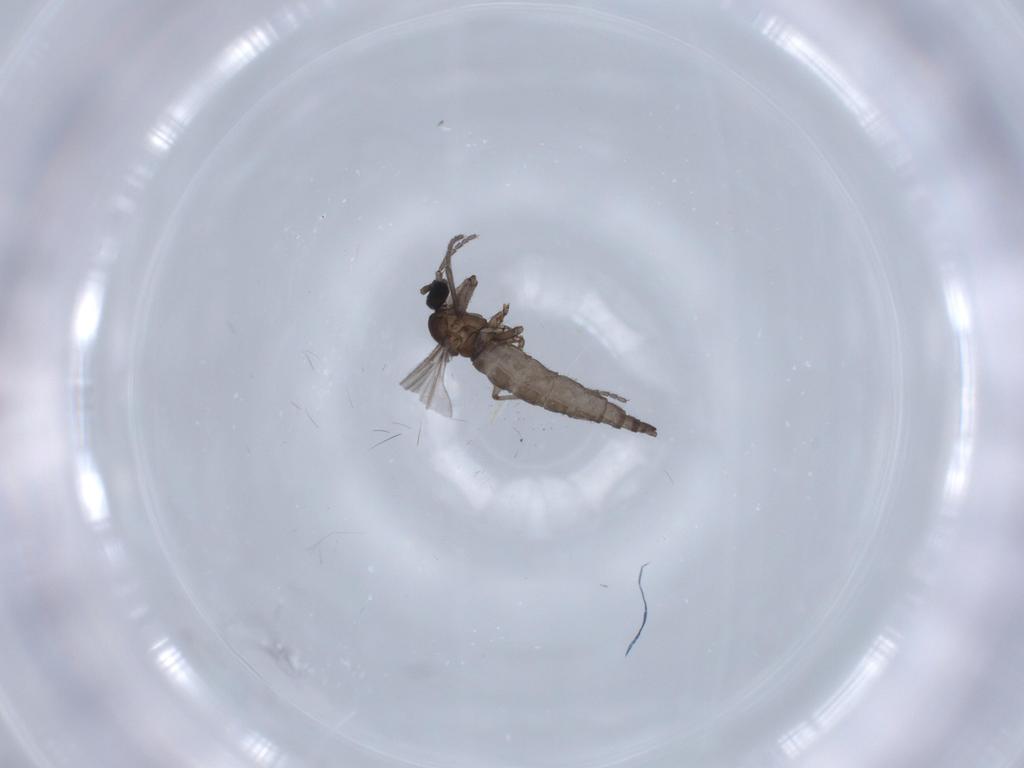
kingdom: Animalia
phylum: Arthropoda
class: Insecta
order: Diptera
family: Sciaridae
